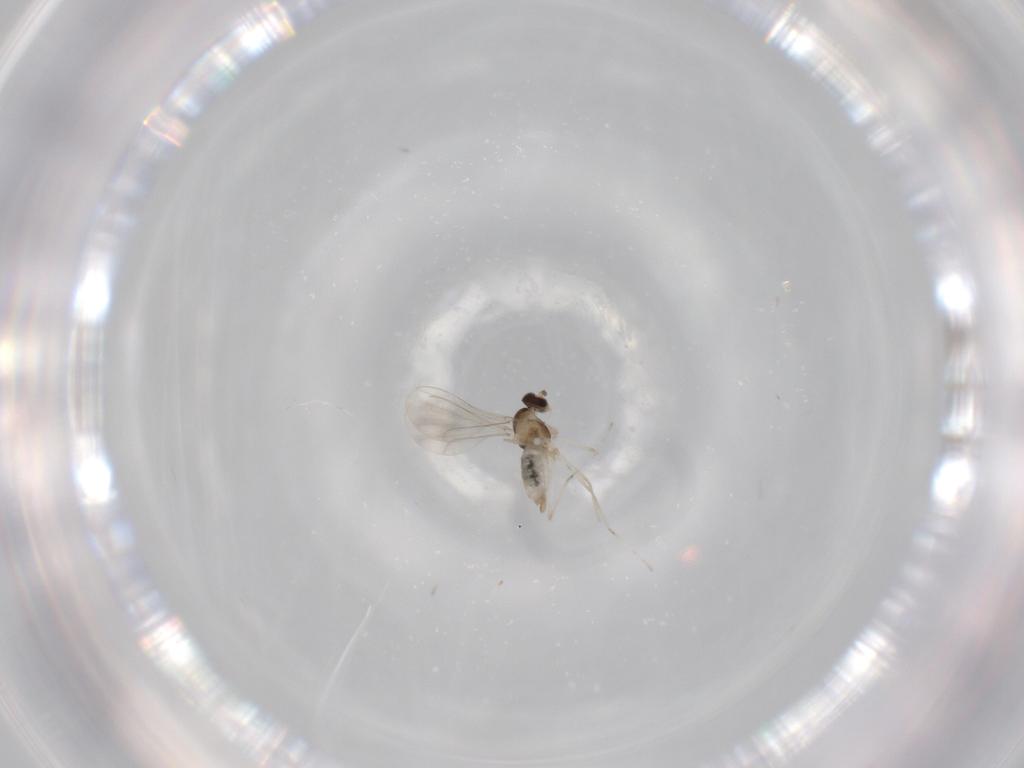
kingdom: Animalia
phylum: Arthropoda
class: Insecta
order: Diptera
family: Cecidomyiidae
